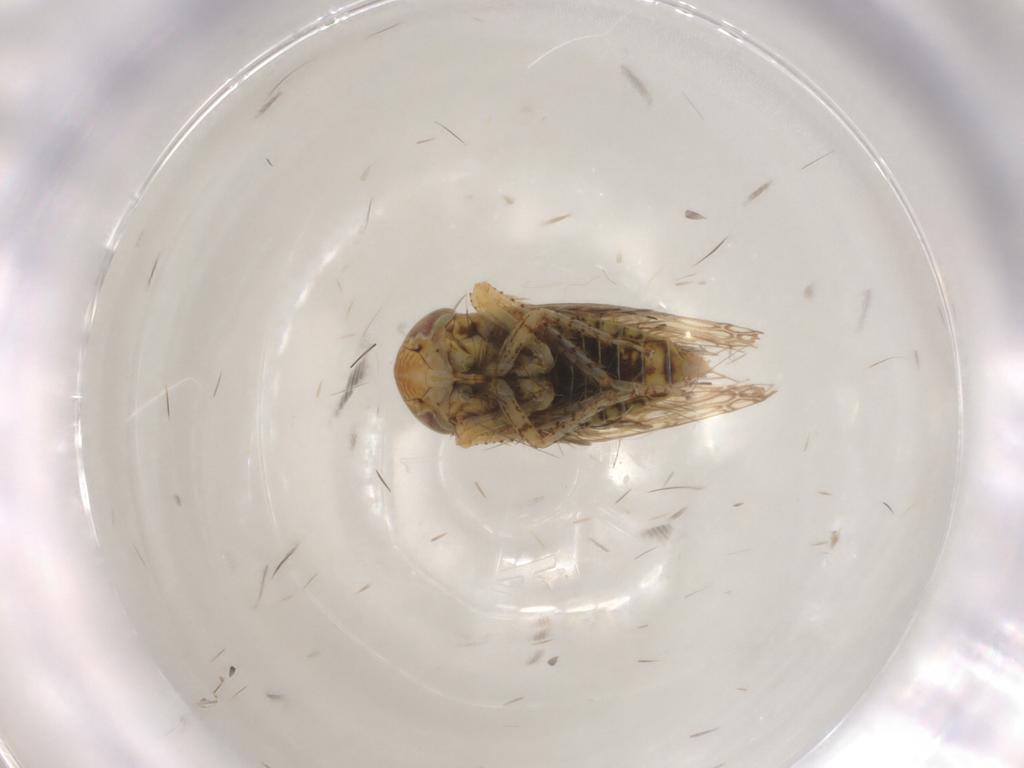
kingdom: Animalia
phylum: Arthropoda
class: Insecta
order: Hemiptera
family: Cicadellidae
